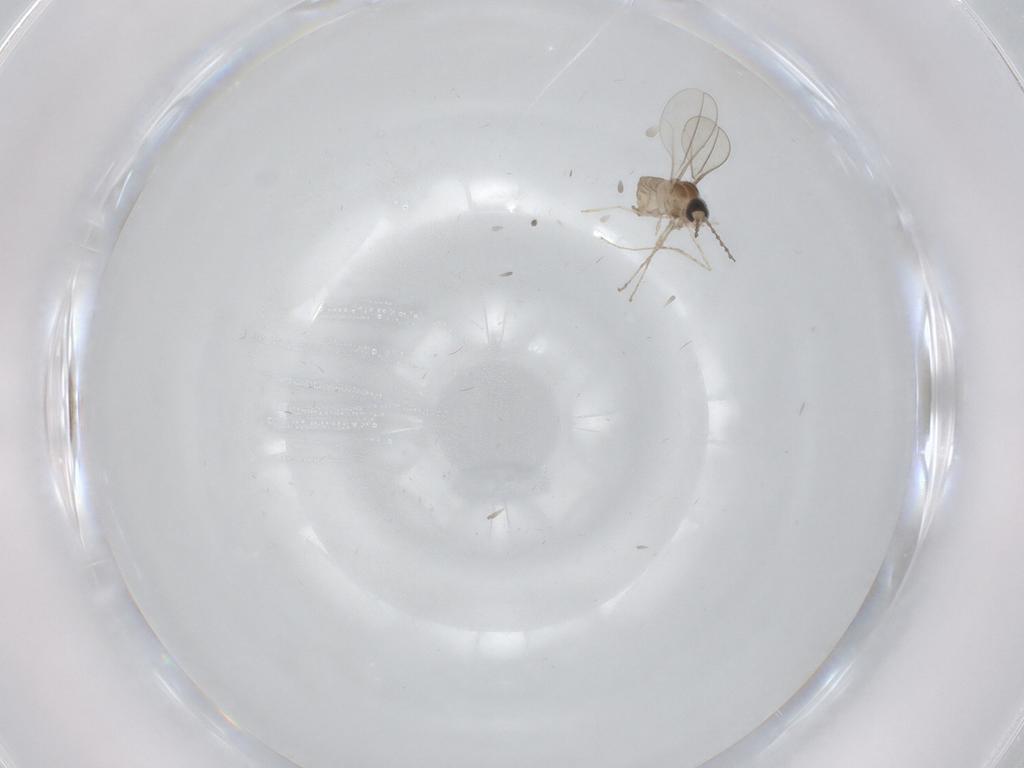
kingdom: Animalia
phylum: Arthropoda
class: Insecta
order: Diptera
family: Cecidomyiidae
